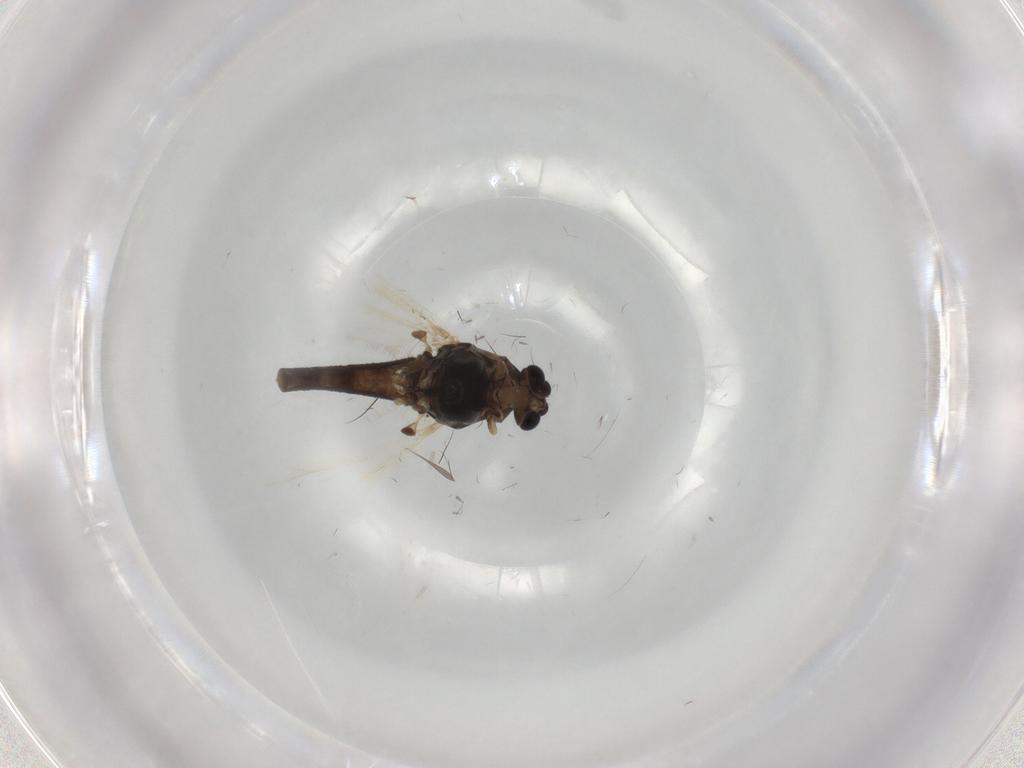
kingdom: Animalia
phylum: Arthropoda
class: Insecta
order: Diptera
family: Chironomidae
